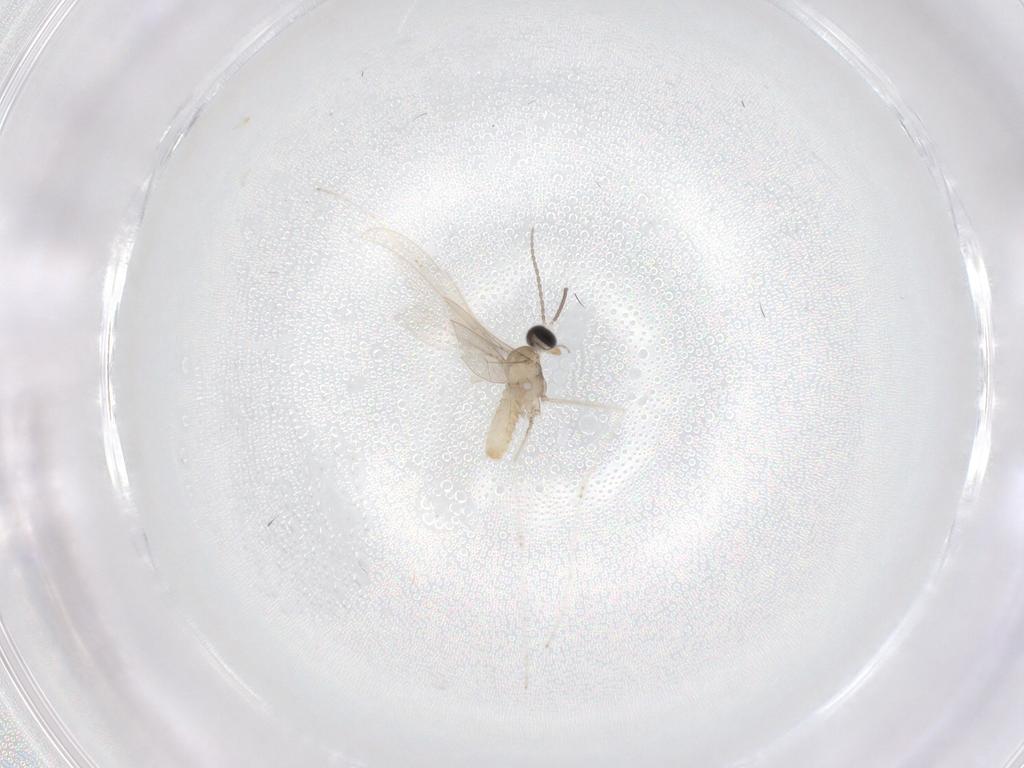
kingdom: Animalia
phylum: Arthropoda
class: Insecta
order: Diptera
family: Cecidomyiidae
